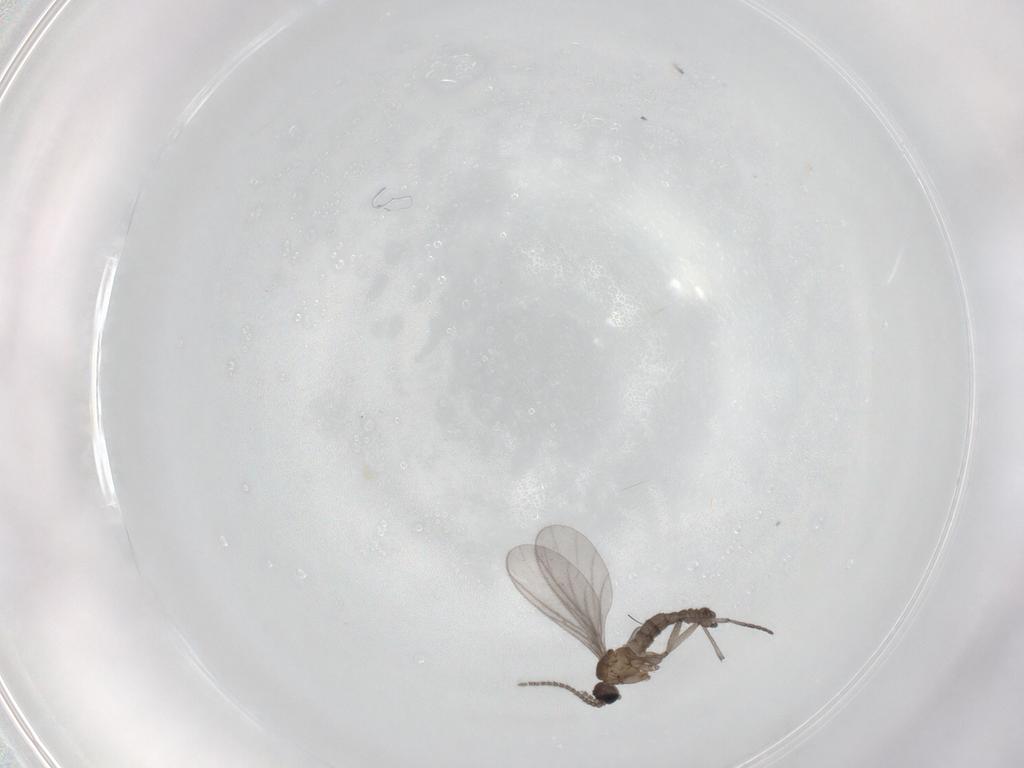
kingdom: Animalia
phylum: Arthropoda
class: Insecta
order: Diptera
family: Sciaridae
